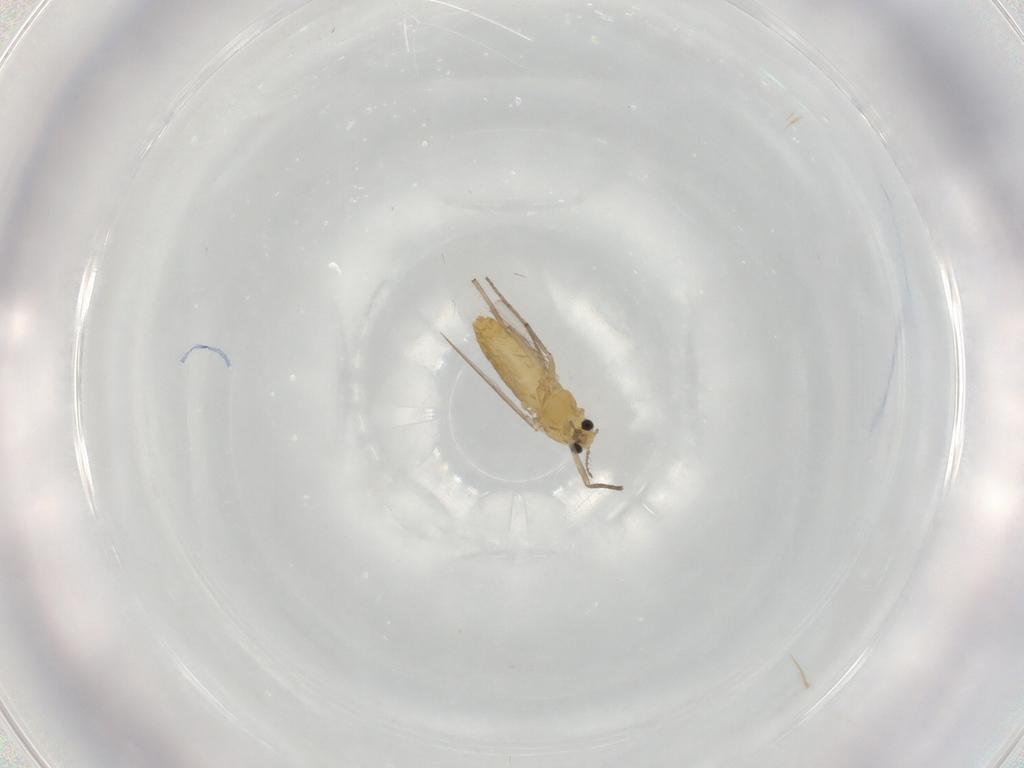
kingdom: Animalia
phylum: Arthropoda
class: Insecta
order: Diptera
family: Chironomidae
